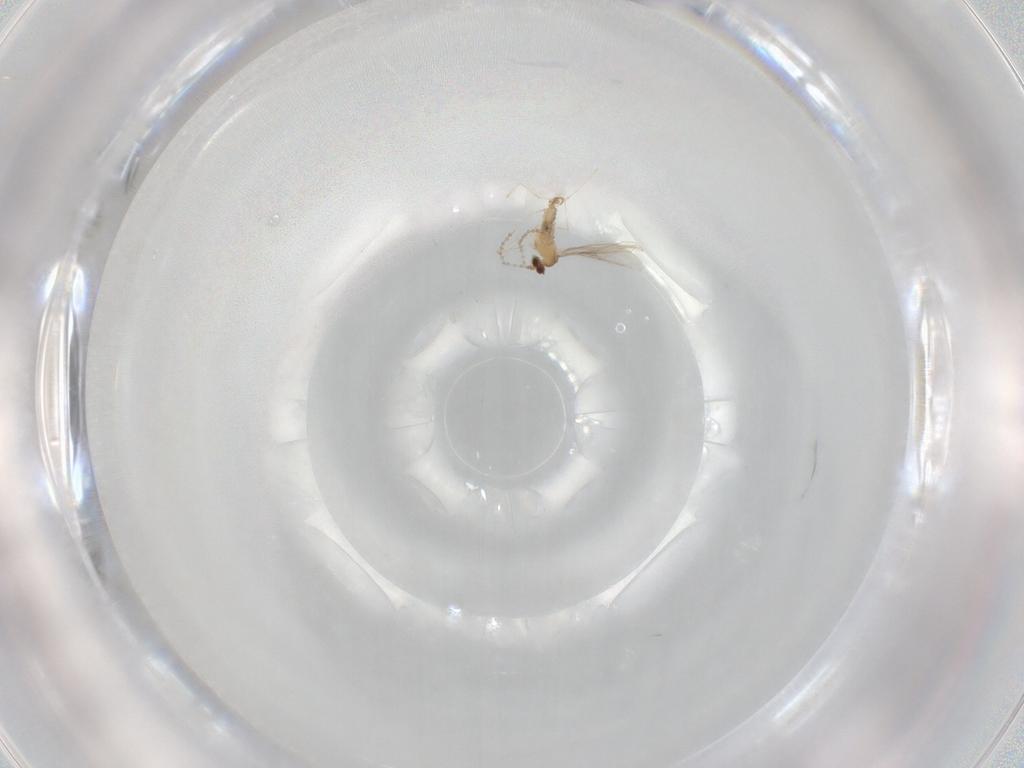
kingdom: Animalia
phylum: Arthropoda
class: Insecta
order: Diptera
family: Cecidomyiidae
